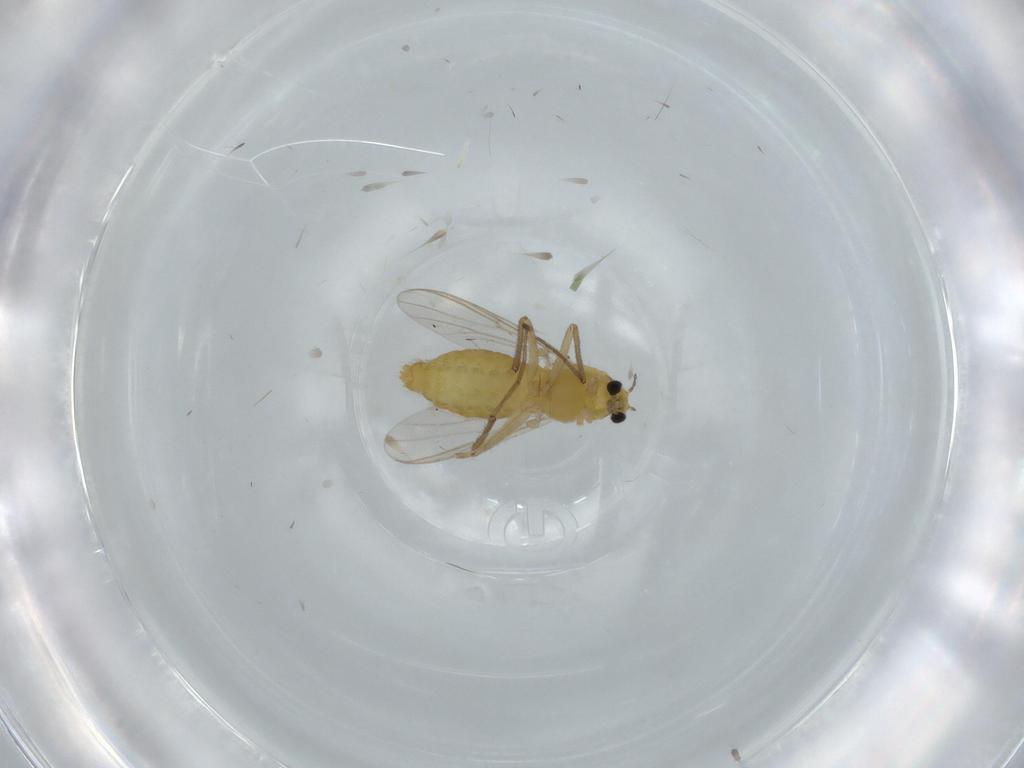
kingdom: Animalia
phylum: Arthropoda
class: Insecta
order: Diptera
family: Chironomidae
